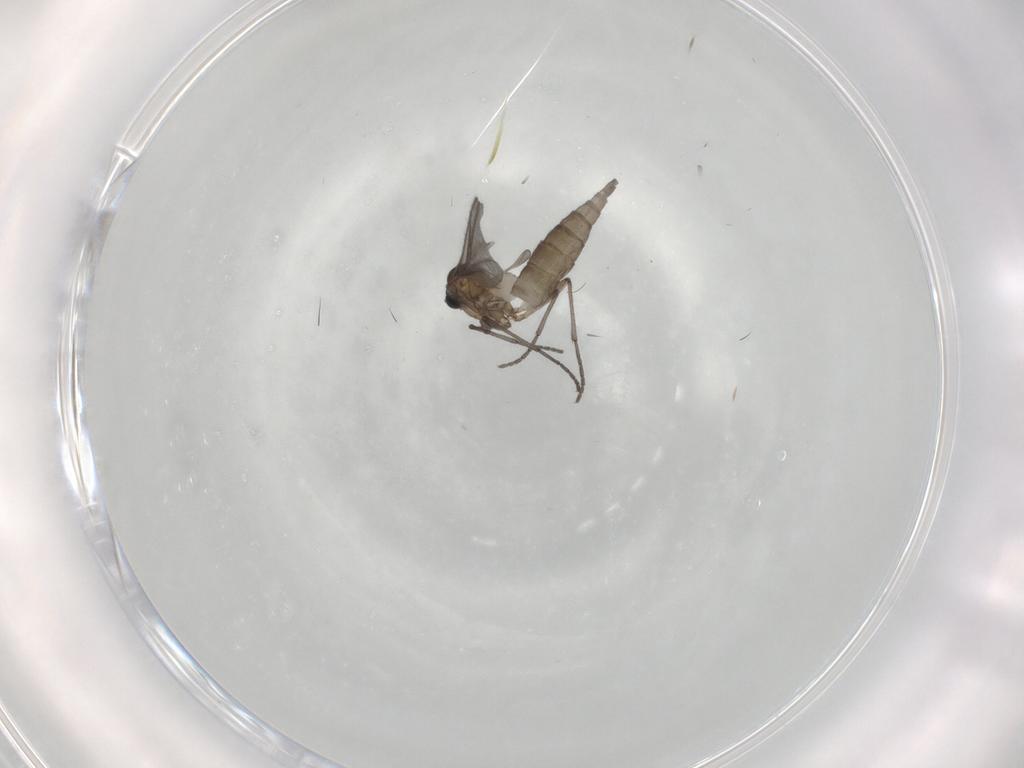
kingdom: Animalia
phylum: Arthropoda
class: Insecta
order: Diptera
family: Sciaridae
